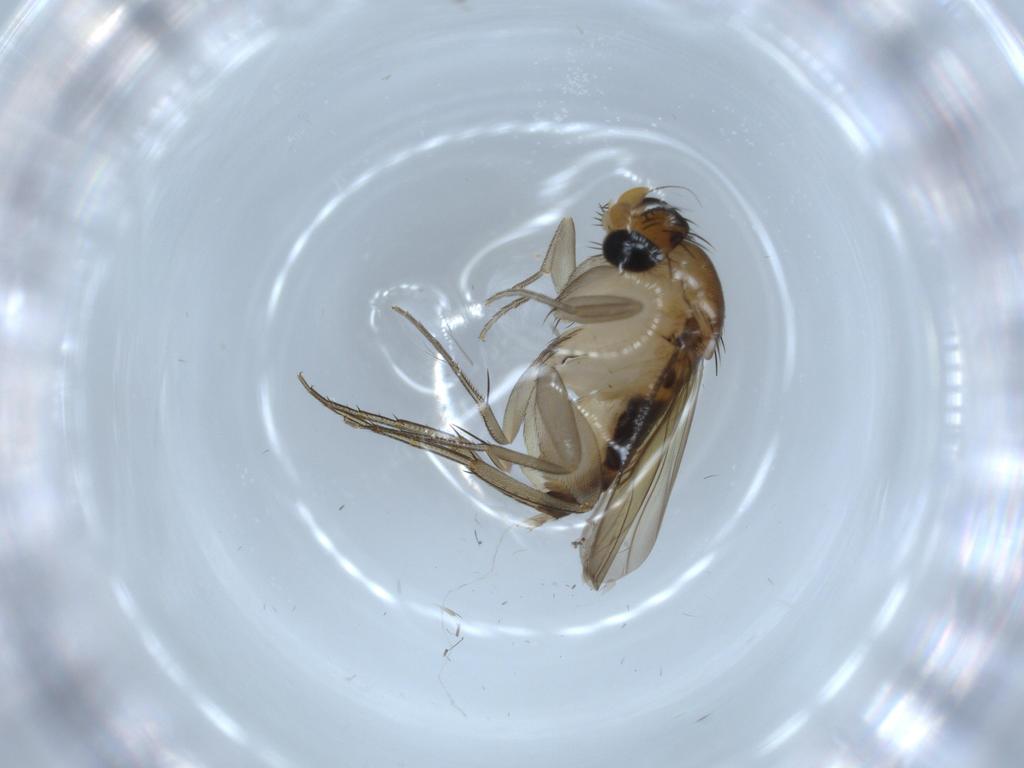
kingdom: Animalia
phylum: Arthropoda
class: Insecta
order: Diptera
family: Phoridae
